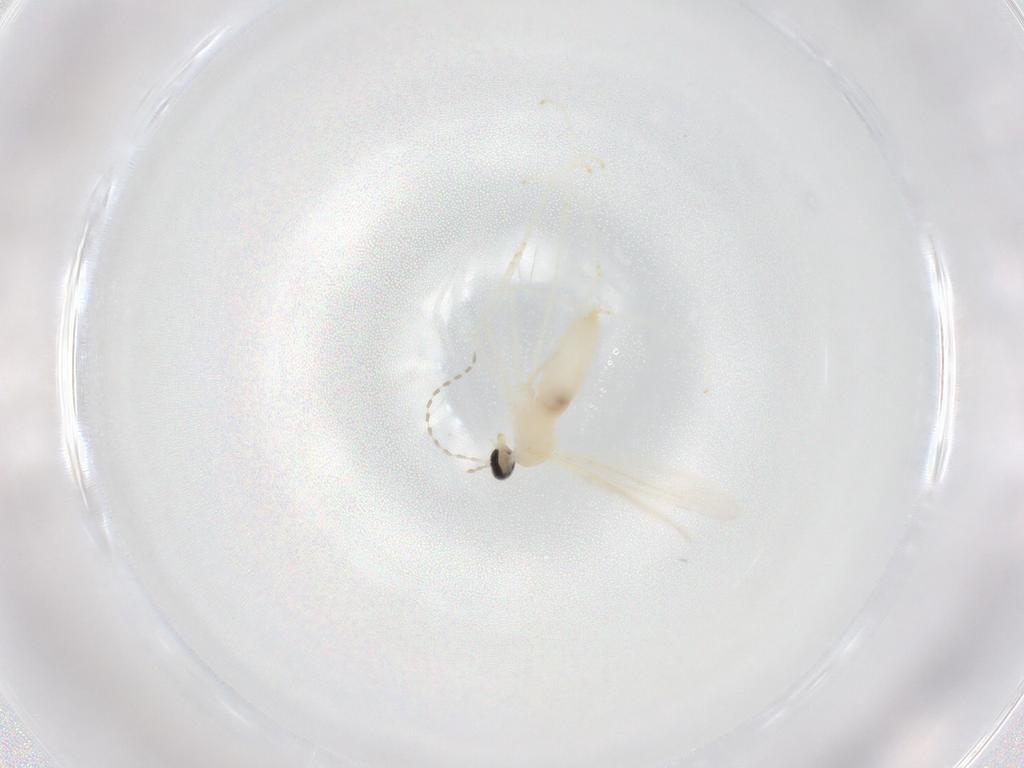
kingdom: Animalia
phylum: Arthropoda
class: Insecta
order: Diptera
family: Cecidomyiidae
